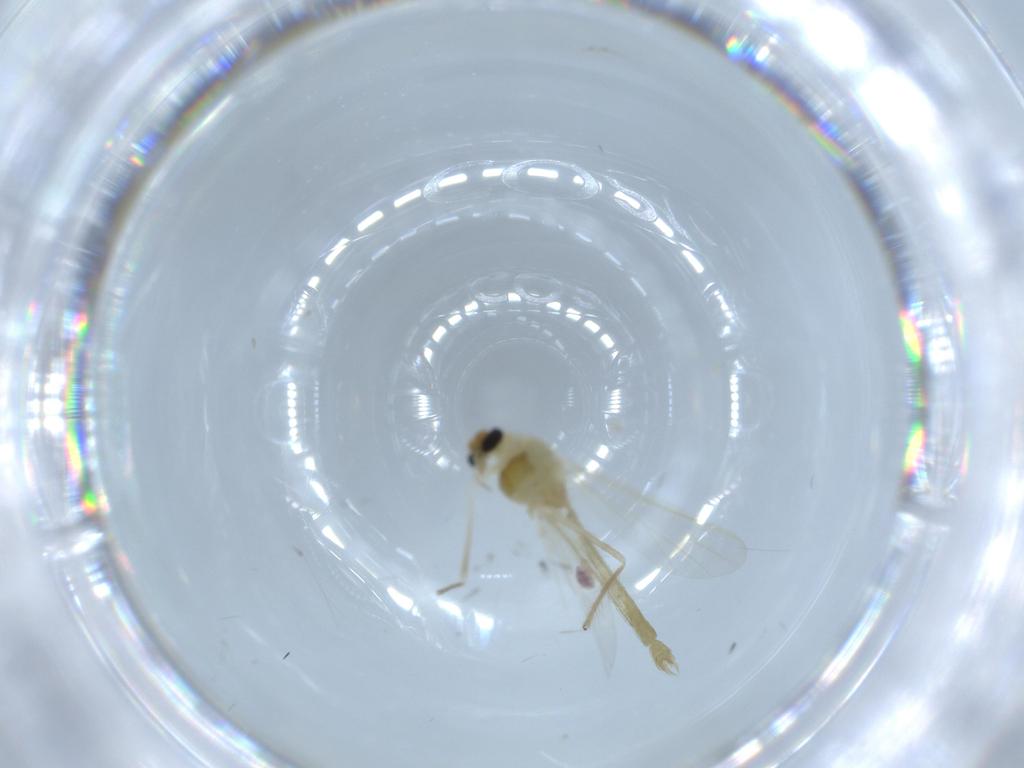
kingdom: Animalia
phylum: Arthropoda
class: Insecta
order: Diptera
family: Chironomidae
